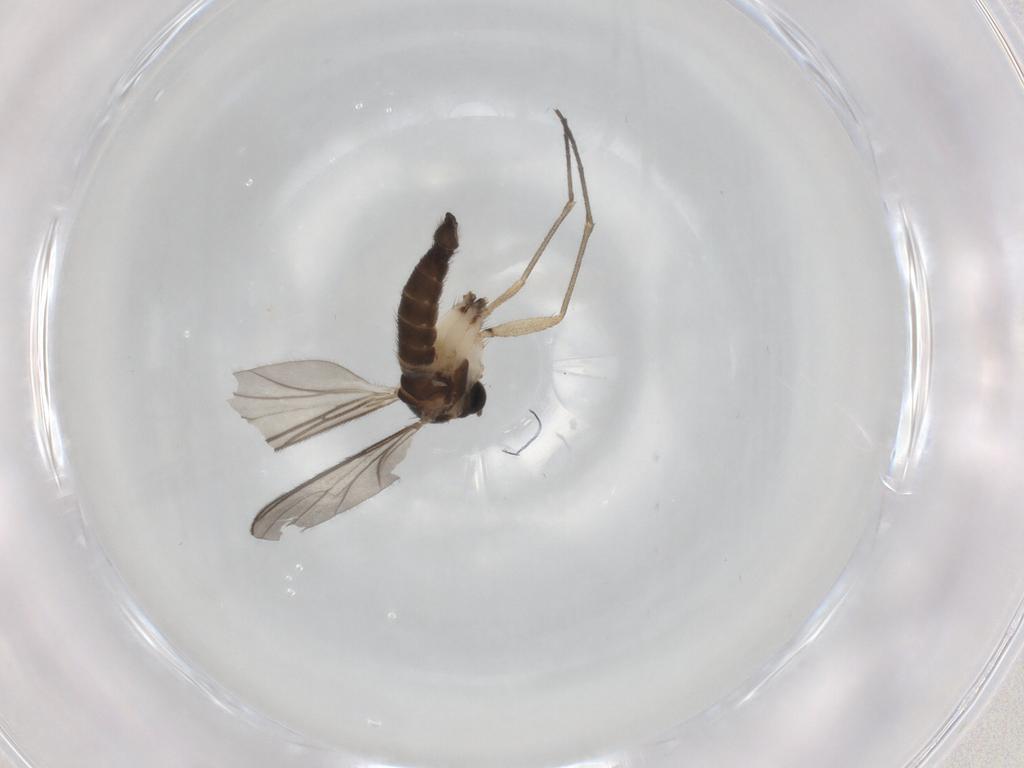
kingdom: Animalia
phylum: Arthropoda
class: Insecta
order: Diptera
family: Sciaridae
